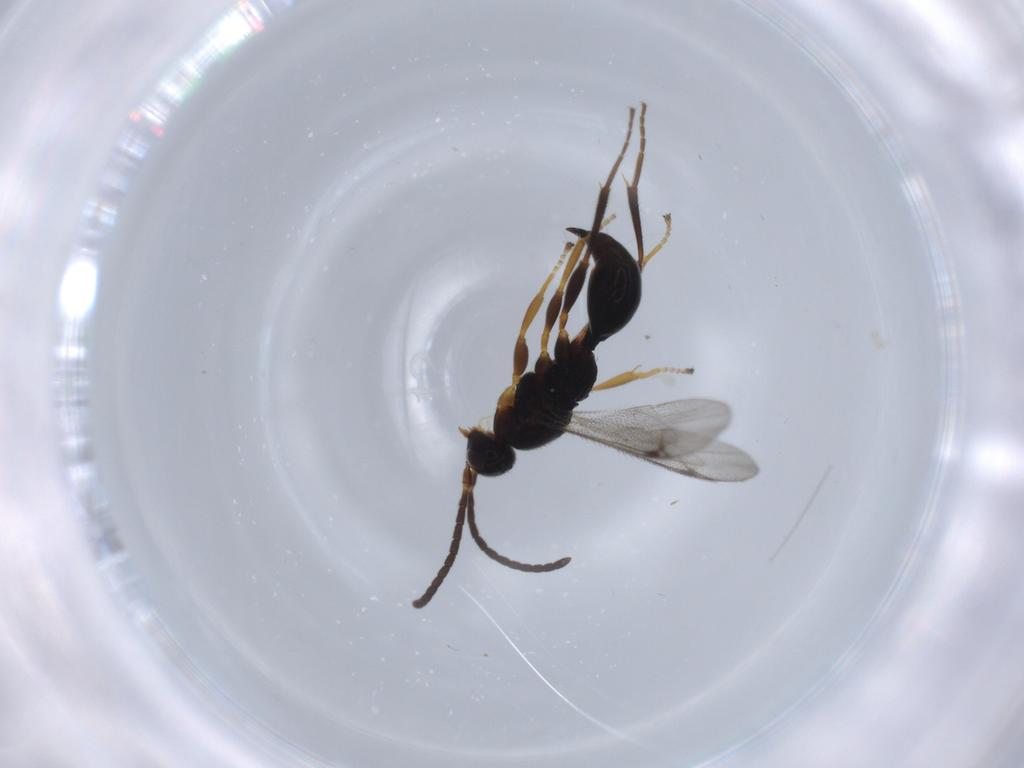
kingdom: Animalia
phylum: Arthropoda
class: Insecta
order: Hymenoptera
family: Proctotrupidae
